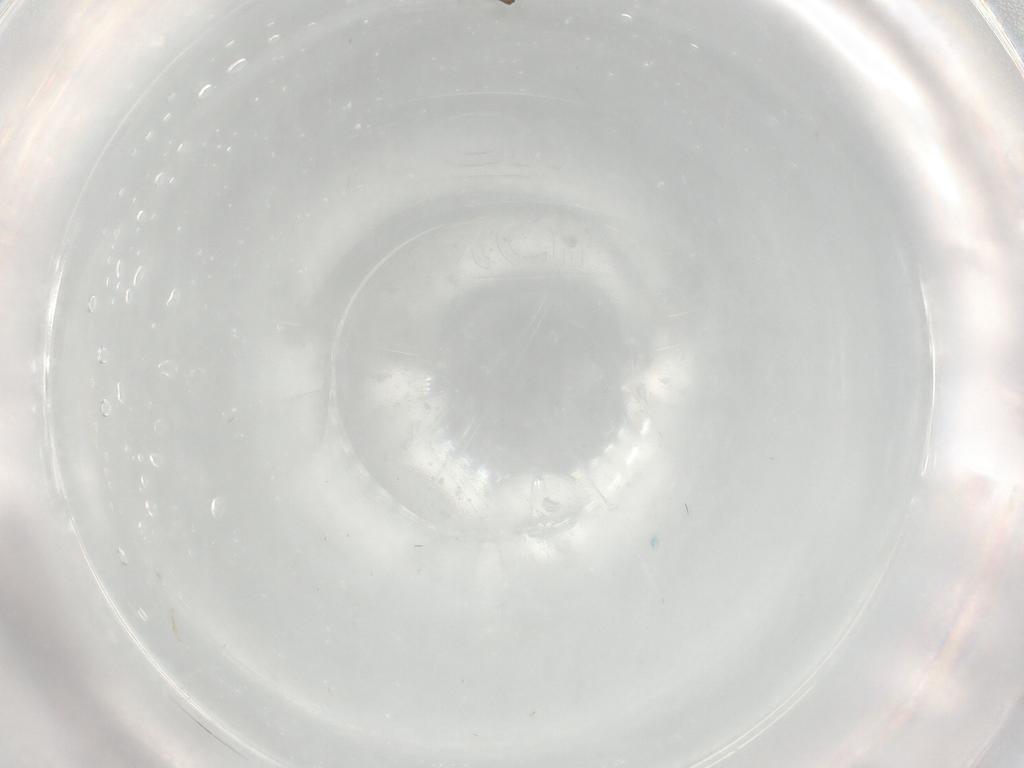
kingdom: Animalia
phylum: Arthropoda
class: Insecta
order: Diptera
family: Cecidomyiidae
